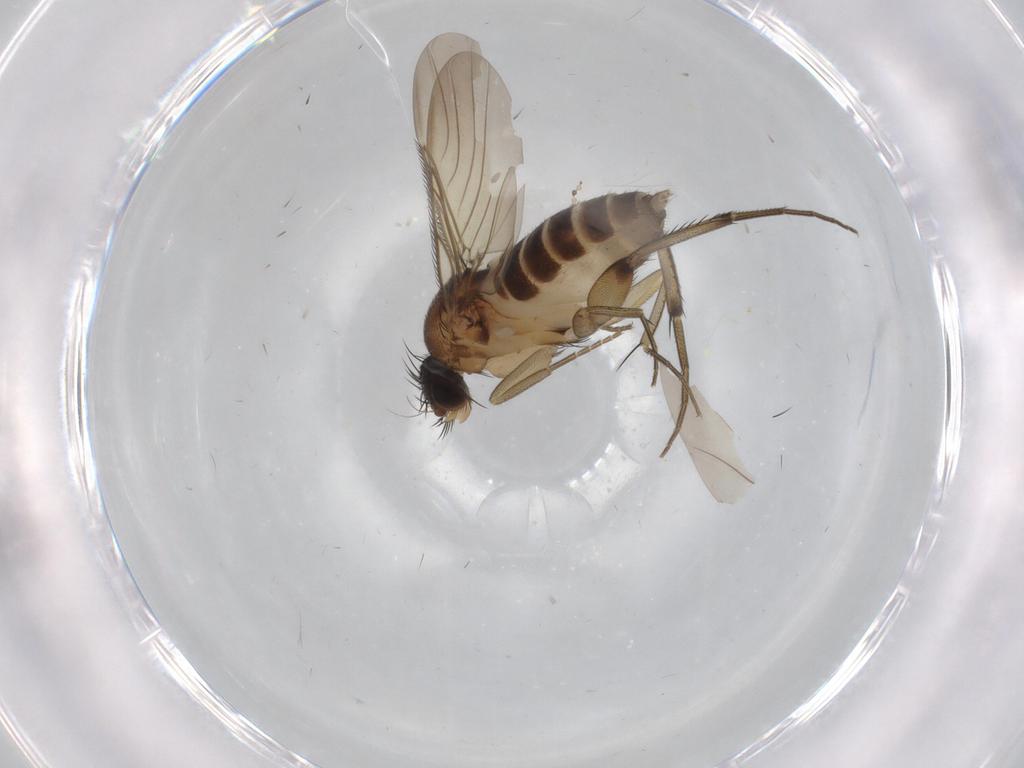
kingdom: Animalia
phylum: Arthropoda
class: Insecta
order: Diptera
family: Phoridae
